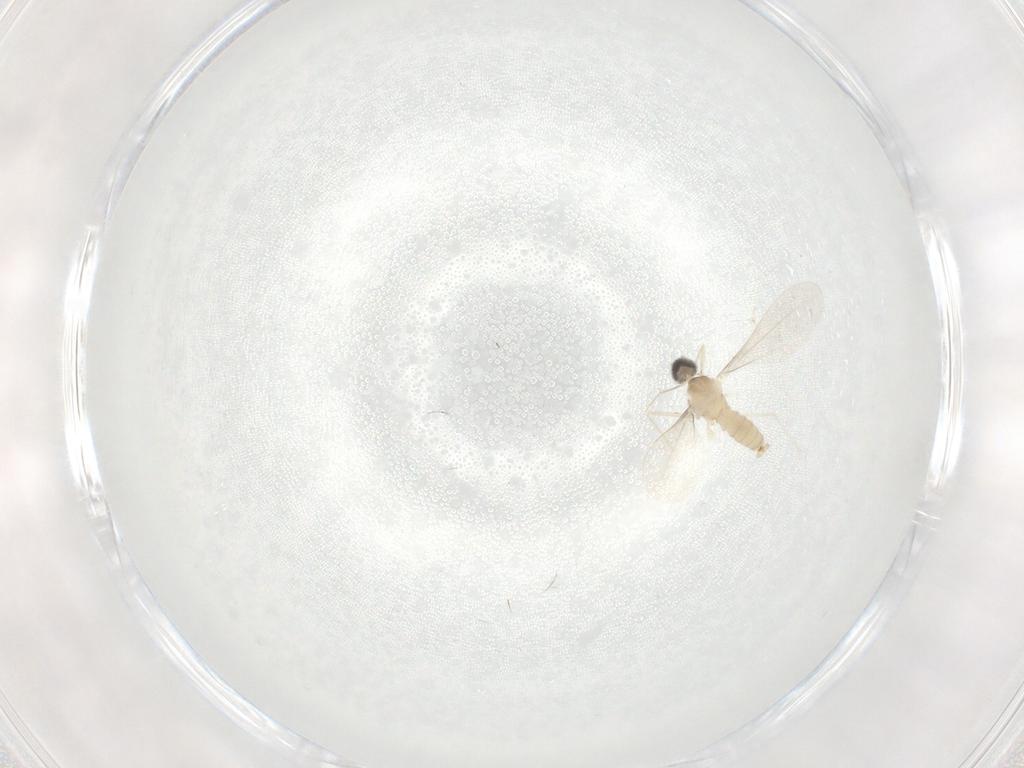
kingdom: Animalia
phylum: Arthropoda
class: Insecta
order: Diptera
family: Cecidomyiidae
